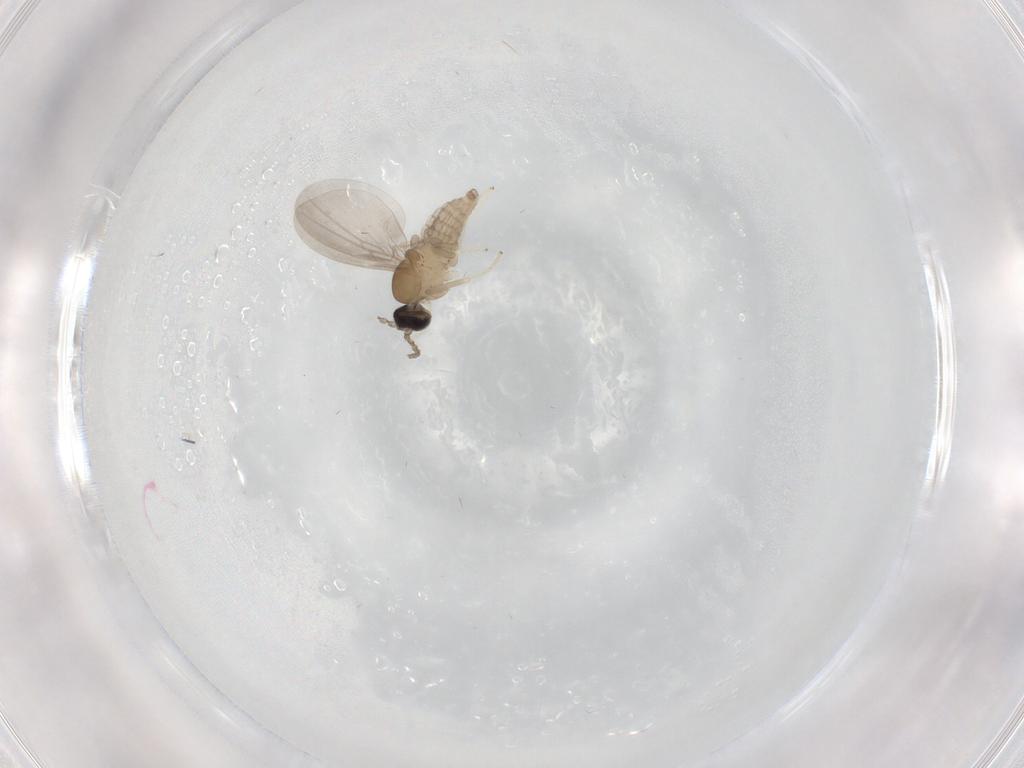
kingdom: Animalia
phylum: Arthropoda
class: Insecta
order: Diptera
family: Cecidomyiidae
